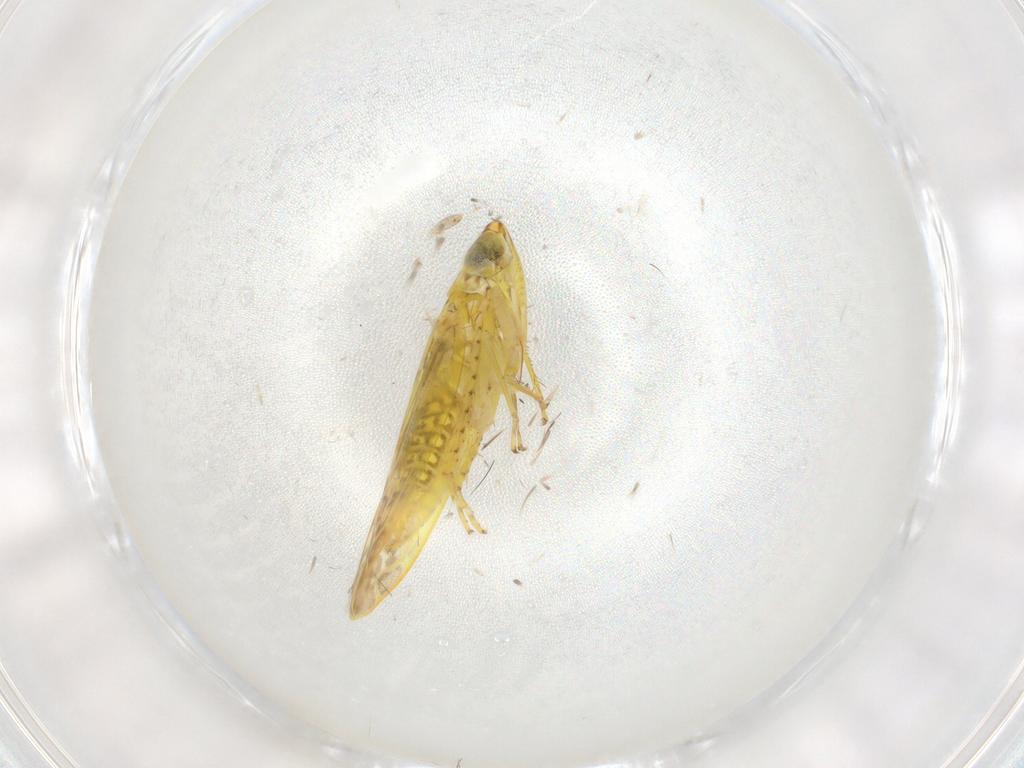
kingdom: Animalia
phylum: Arthropoda
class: Insecta
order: Hemiptera
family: Cicadellidae
